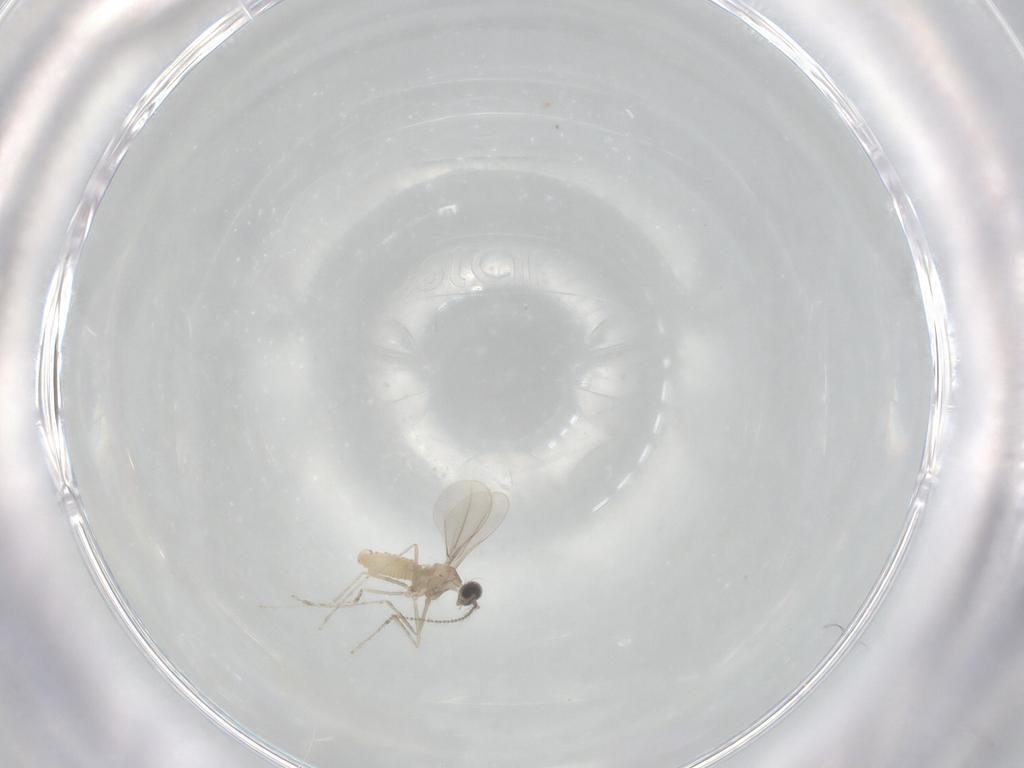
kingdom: Animalia
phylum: Arthropoda
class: Insecta
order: Diptera
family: Cecidomyiidae
